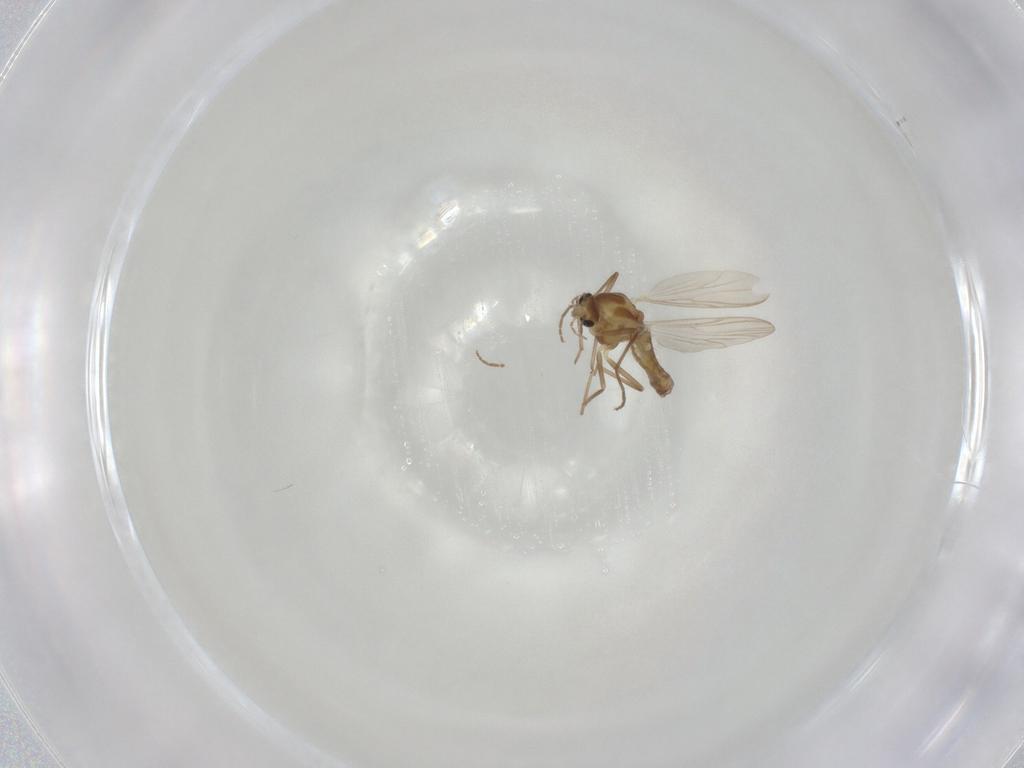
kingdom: Animalia
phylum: Arthropoda
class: Insecta
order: Diptera
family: Chironomidae
